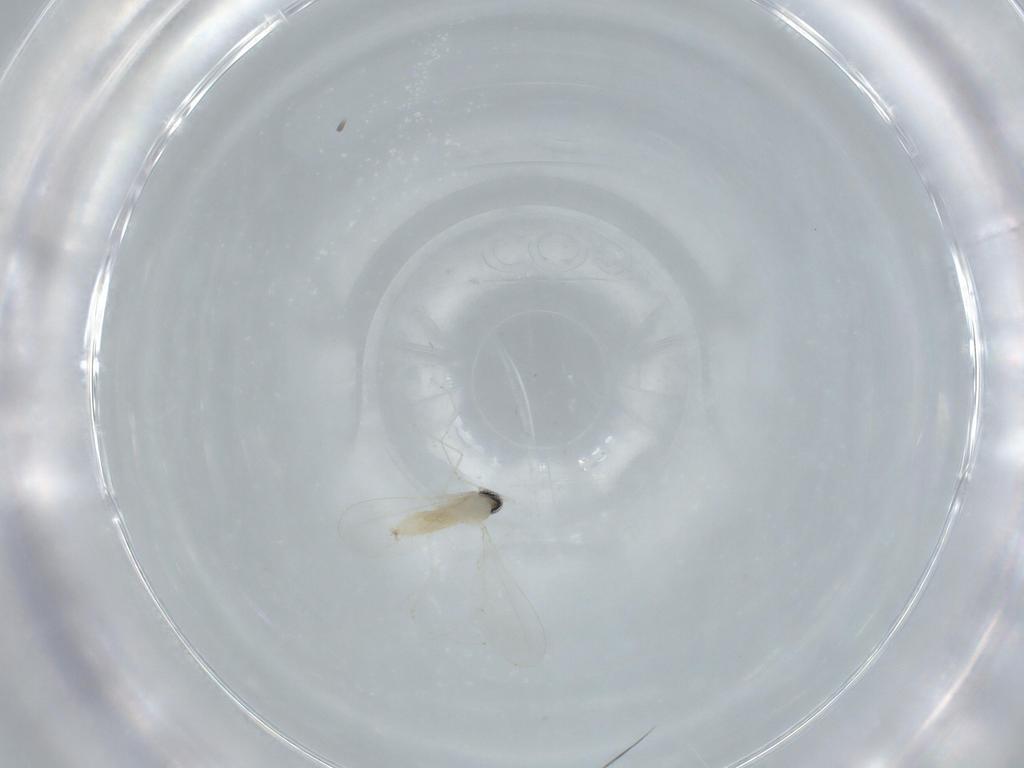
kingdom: Animalia
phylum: Arthropoda
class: Insecta
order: Diptera
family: Cecidomyiidae
